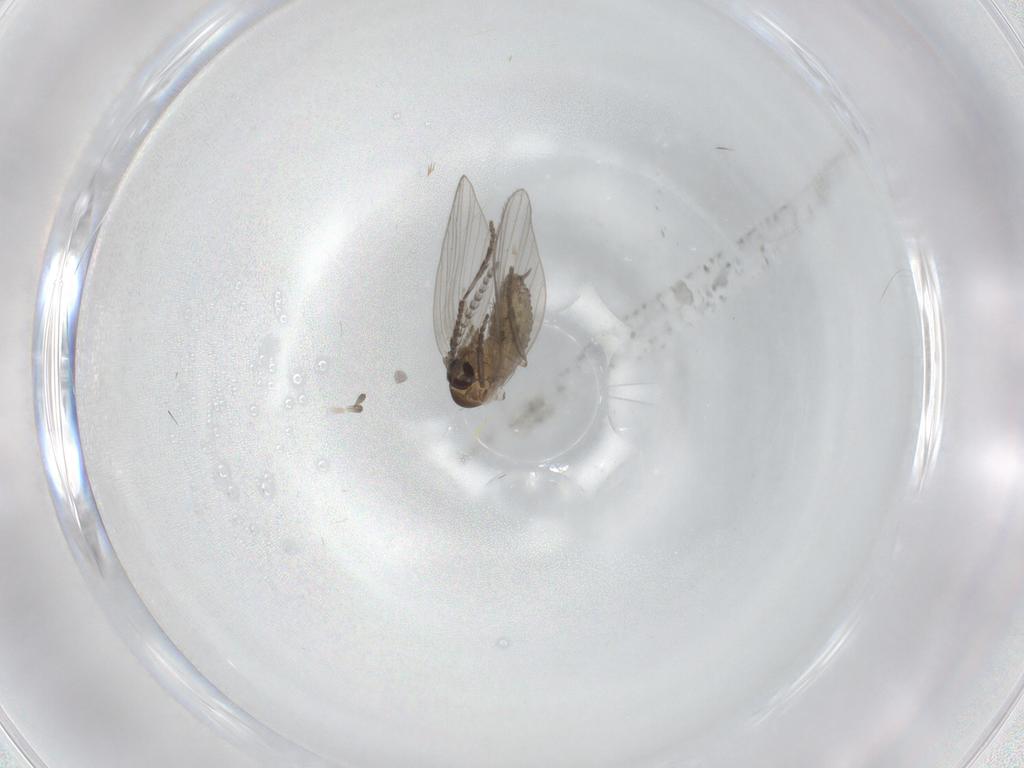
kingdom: Animalia
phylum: Arthropoda
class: Insecta
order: Diptera
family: Psychodidae
